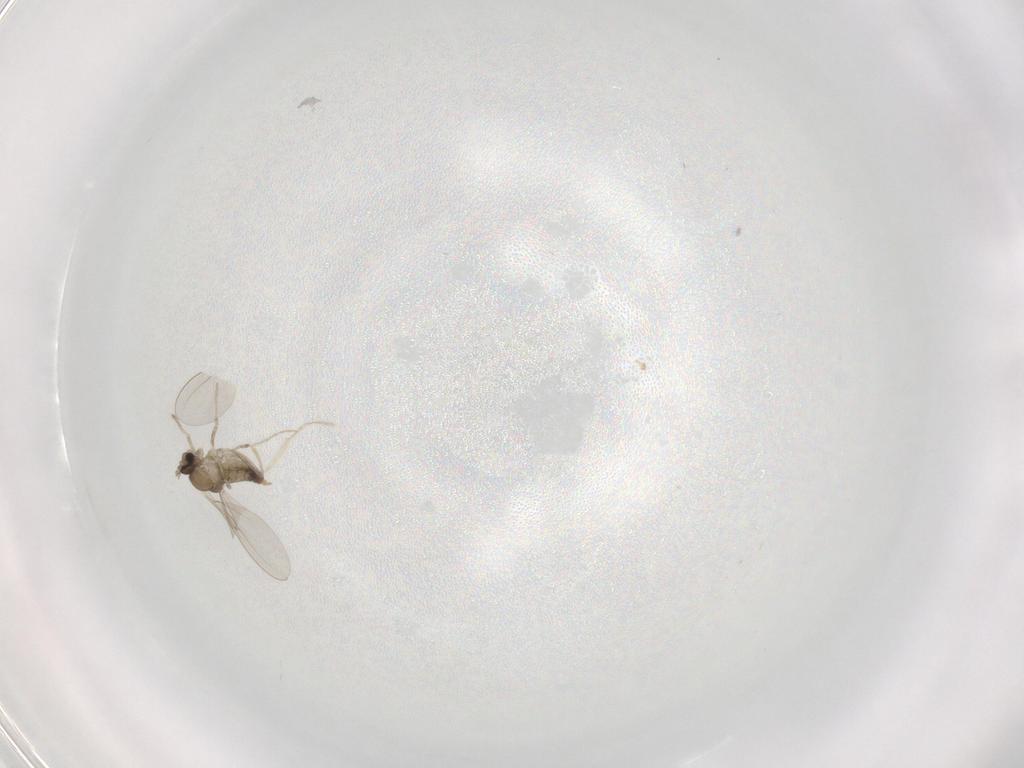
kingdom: Animalia
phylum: Arthropoda
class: Insecta
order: Diptera
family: Cecidomyiidae
